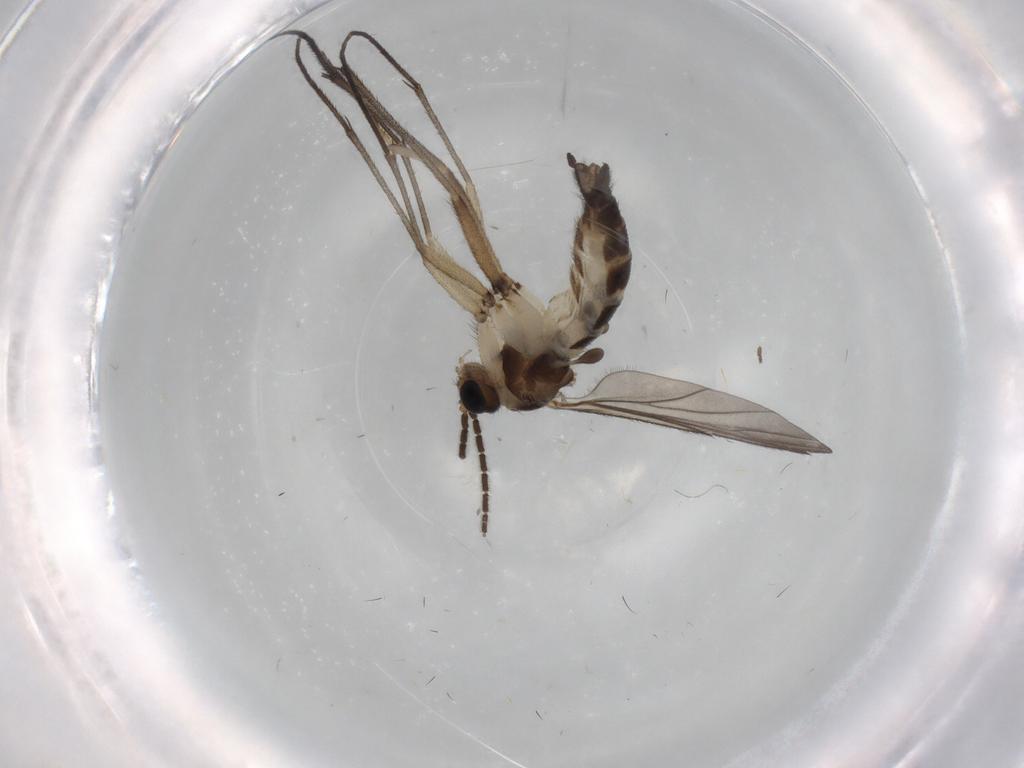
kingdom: Animalia
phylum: Arthropoda
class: Insecta
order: Diptera
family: Sciaridae
